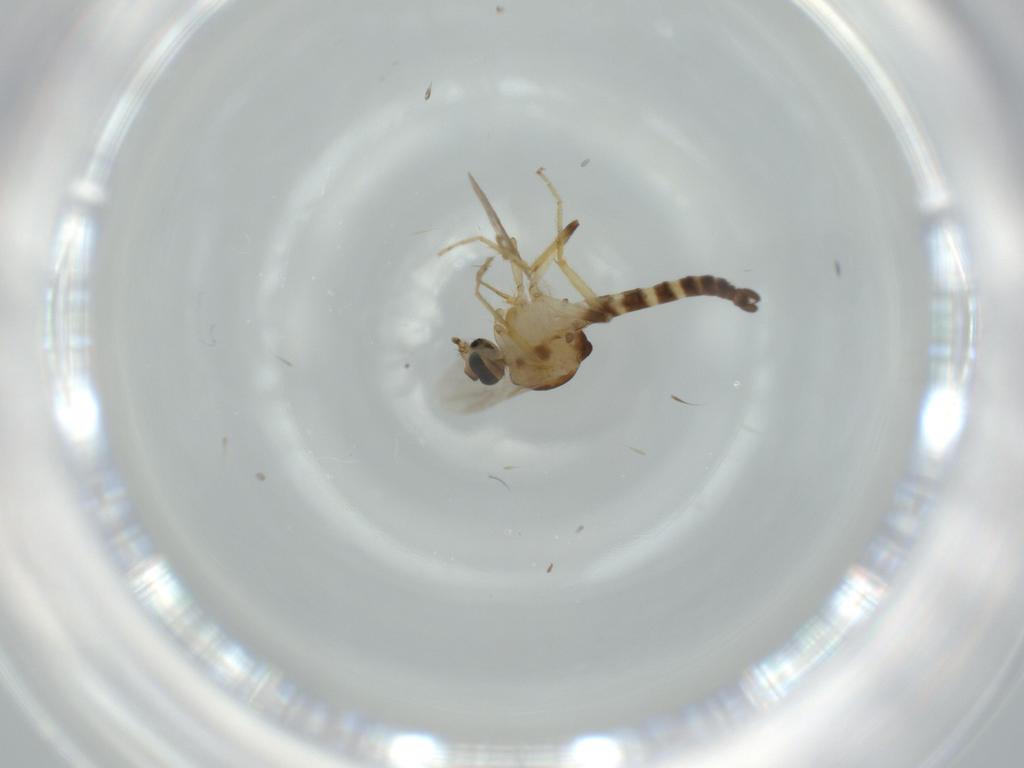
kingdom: Animalia
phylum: Arthropoda
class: Insecta
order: Diptera
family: Ceratopogonidae
